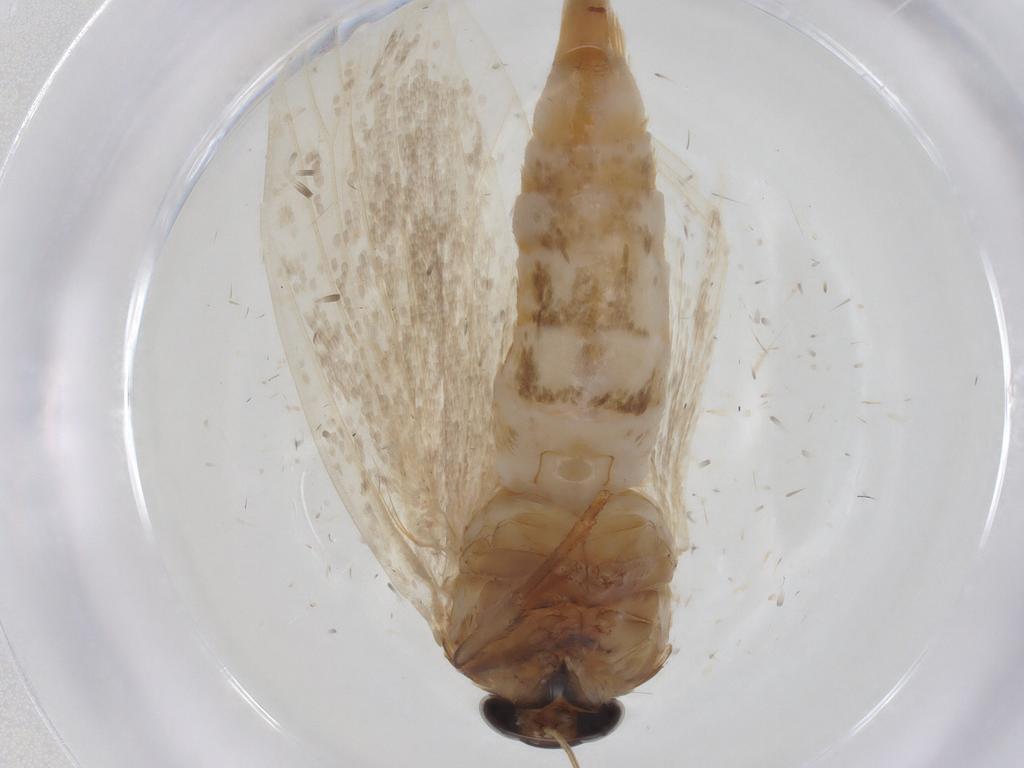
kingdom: Animalia
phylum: Arthropoda
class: Insecta
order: Lepidoptera
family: Oecophoridae
